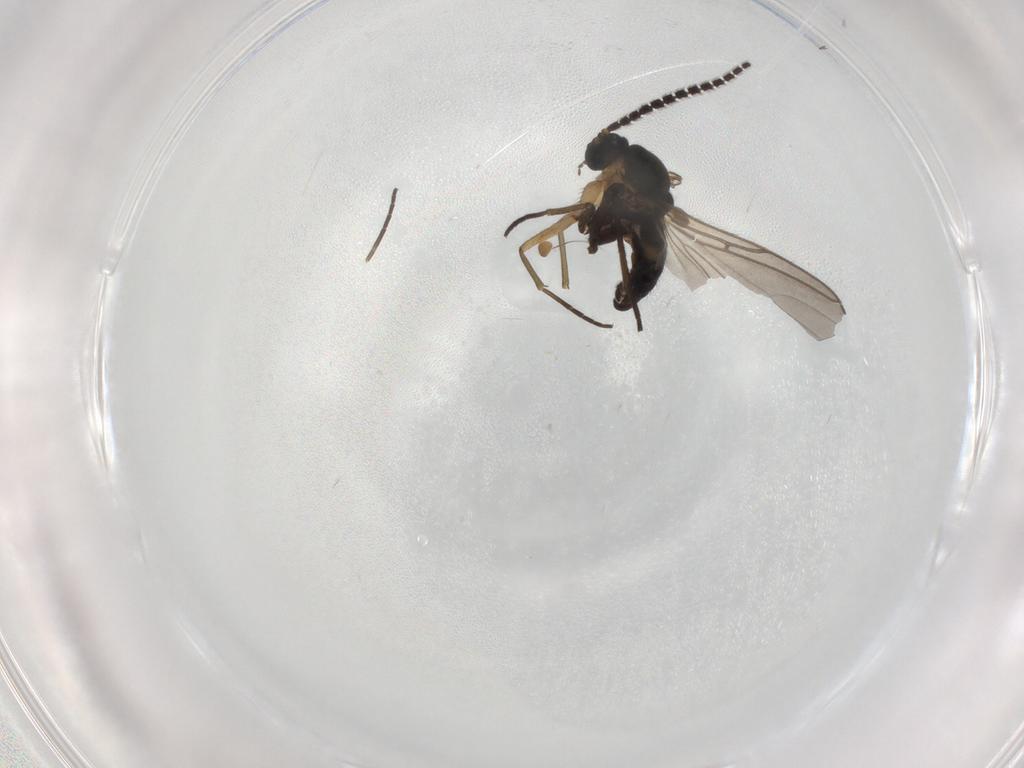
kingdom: Animalia
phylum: Arthropoda
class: Insecta
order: Diptera
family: Phoridae
